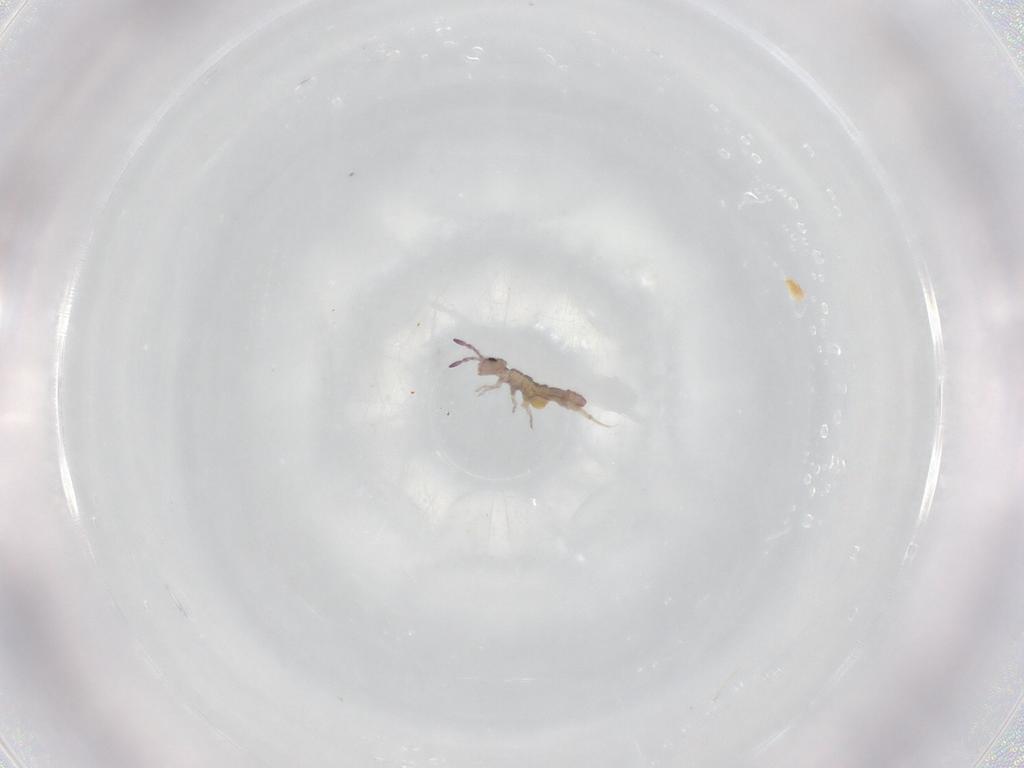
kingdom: Animalia
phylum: Arthropoda
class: Collembola
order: Entomobryomorpha
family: Isotomidae
